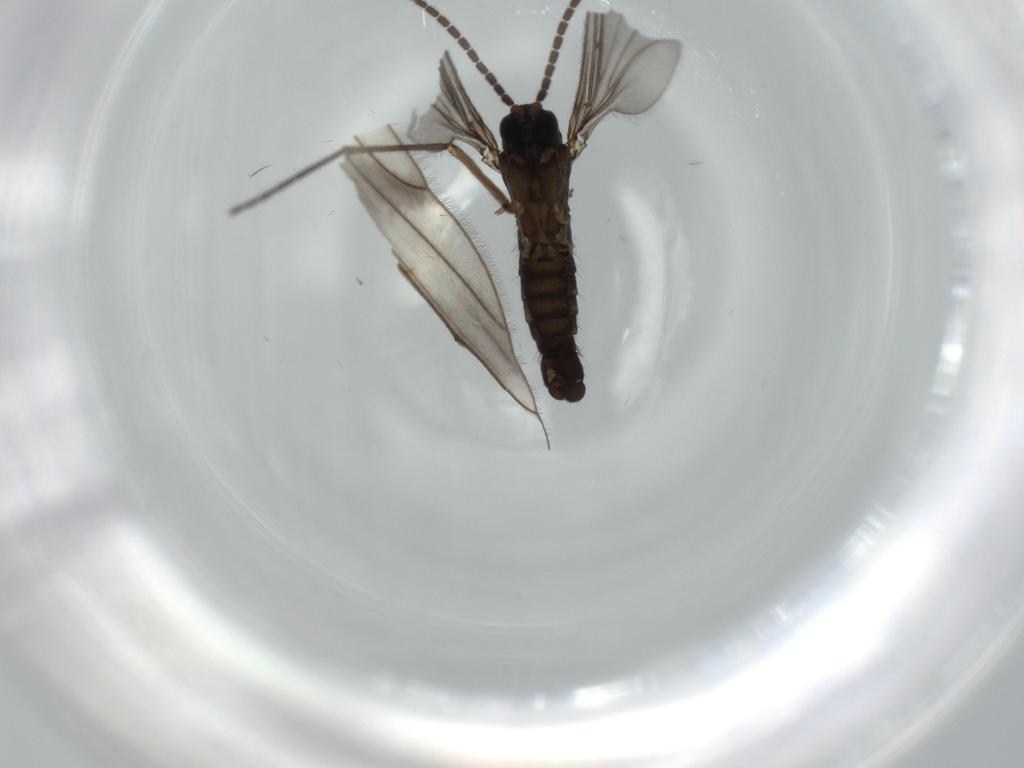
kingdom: Animalia
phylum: Arthropoda
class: Insecta
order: Diptera
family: Sciaridae
